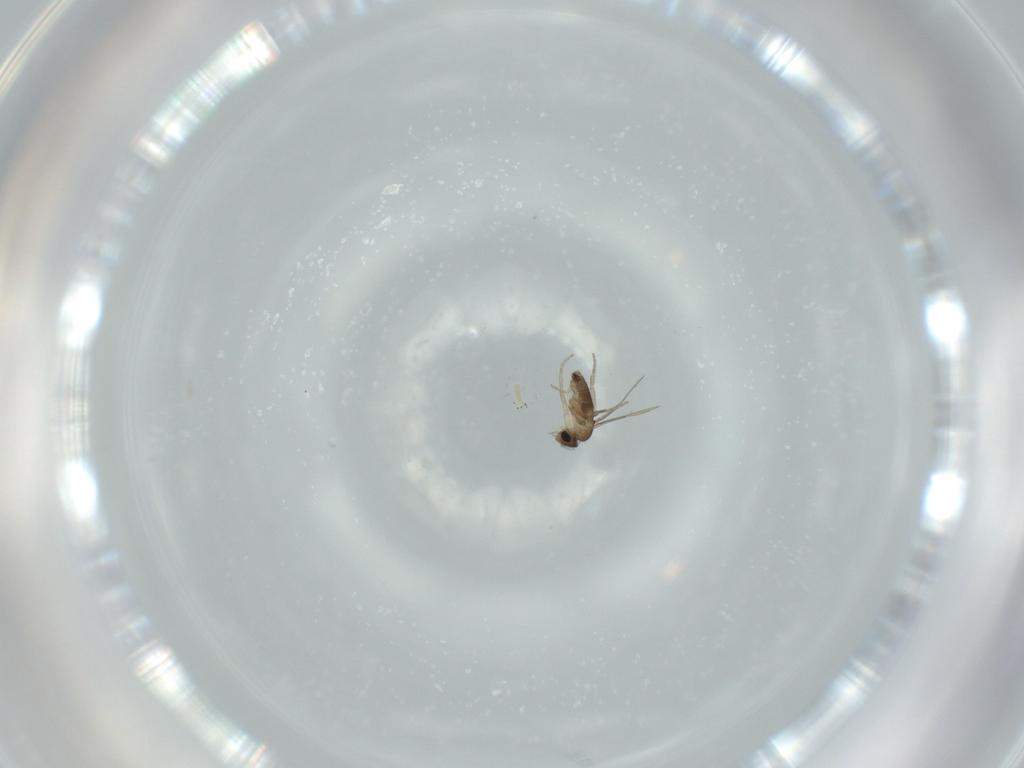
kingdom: Animalia
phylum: Arthropoda
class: Insecta
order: Diptera
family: Phoridae
